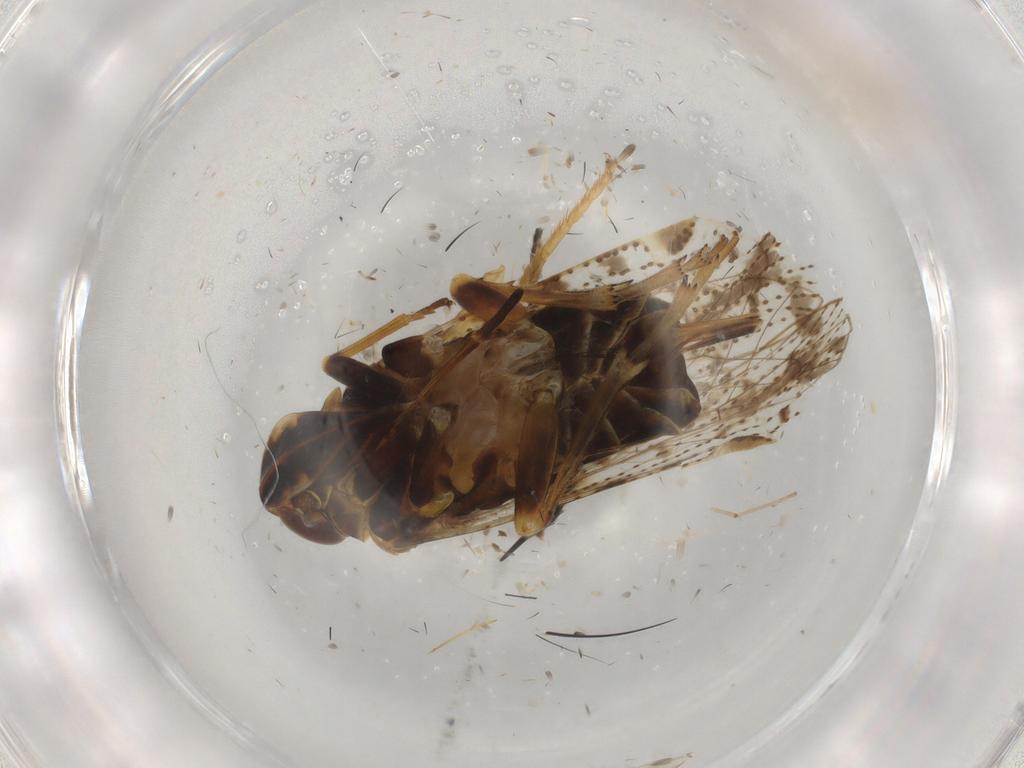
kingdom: Animalia
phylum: Arthropoda
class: Insecta
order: Hemiptera
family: Cixiidae
